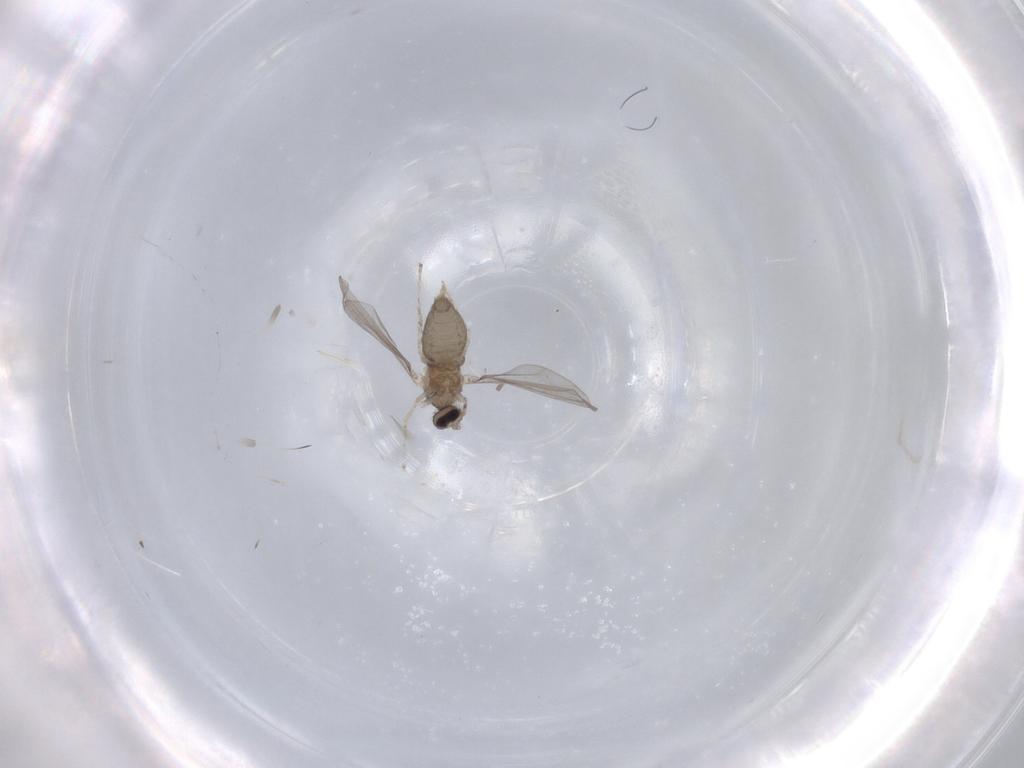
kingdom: Animalia
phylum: Arthropoda
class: Insecta
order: Diptera
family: Cecidomyiidae
